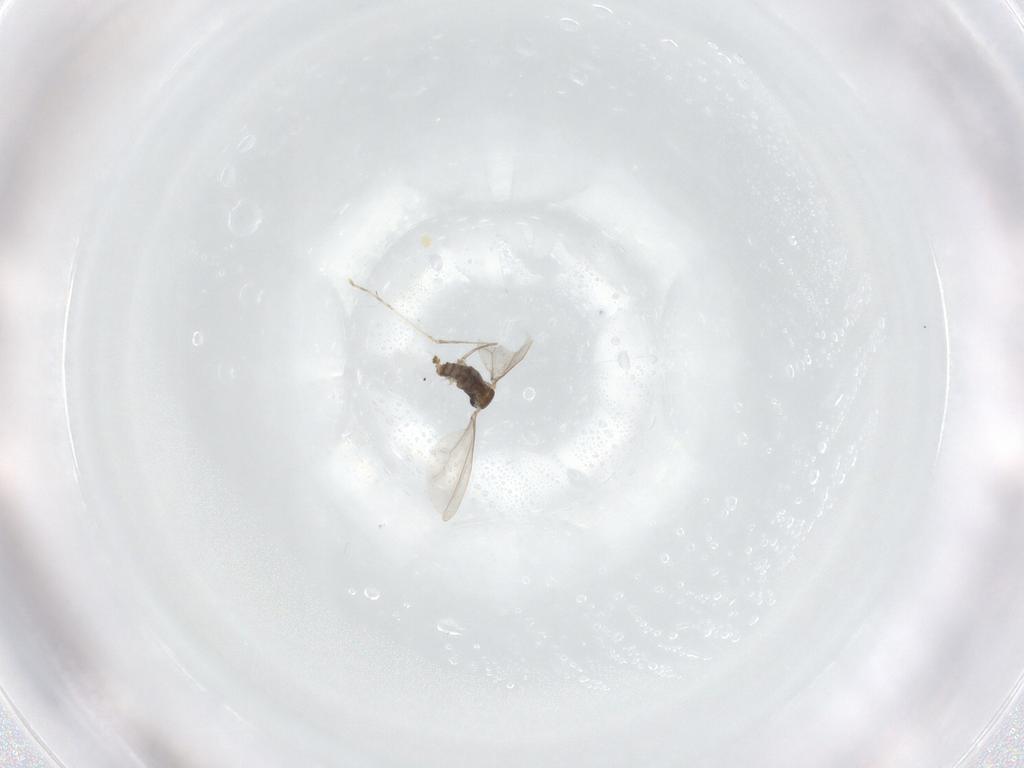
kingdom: Animalia
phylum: Arthropoda
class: Insecta
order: Diptera
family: Cecidomyiidae
